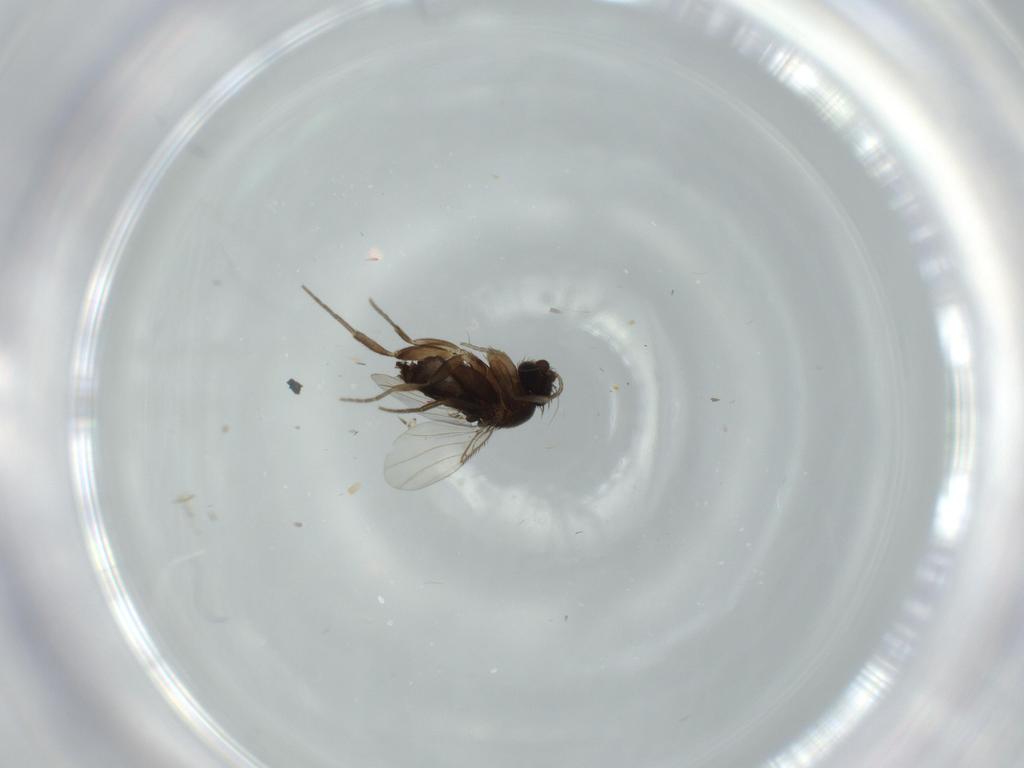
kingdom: Animalia
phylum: Arthropoda
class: Insecta
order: Diptera
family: Phoridae
